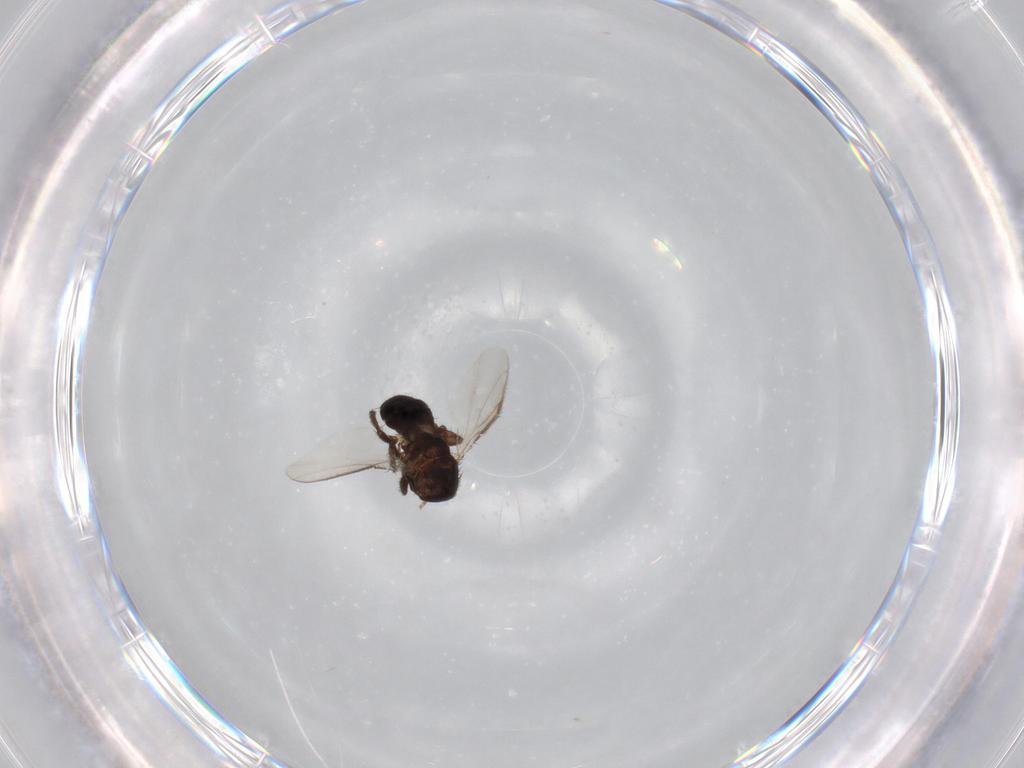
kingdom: Animalia
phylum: Arthropoda
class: Insecta
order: Diptera
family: Sphaeroceridae
